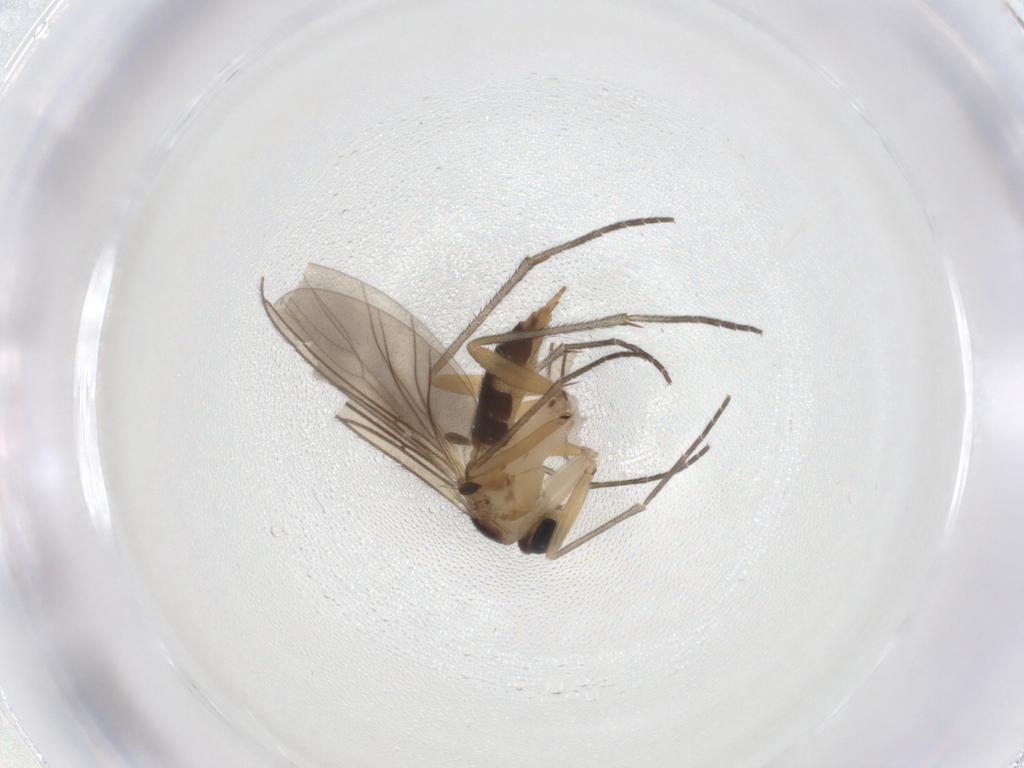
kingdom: Animalia
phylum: Arthropoda
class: Insecta
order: Diptera
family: Sciaridae
